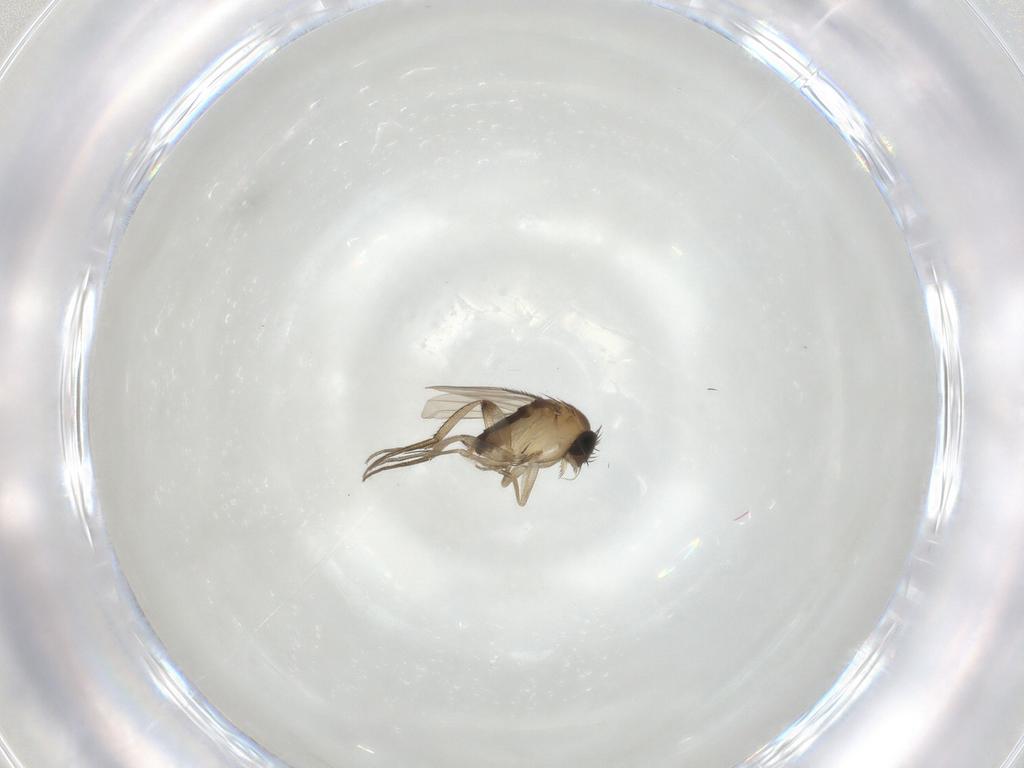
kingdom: Animalia
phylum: Arthropoda
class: Insecta
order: Diptera
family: Phoridae
